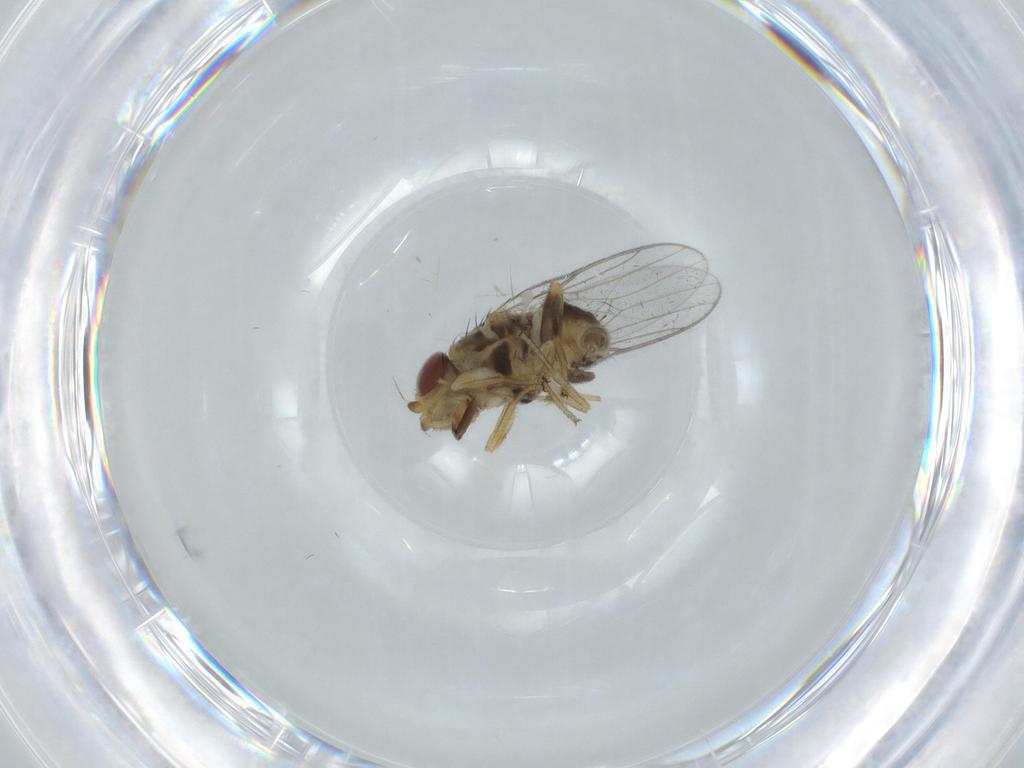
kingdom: Animalia
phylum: Arthropoda
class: Insecta
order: Diptera
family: Chloropidae
